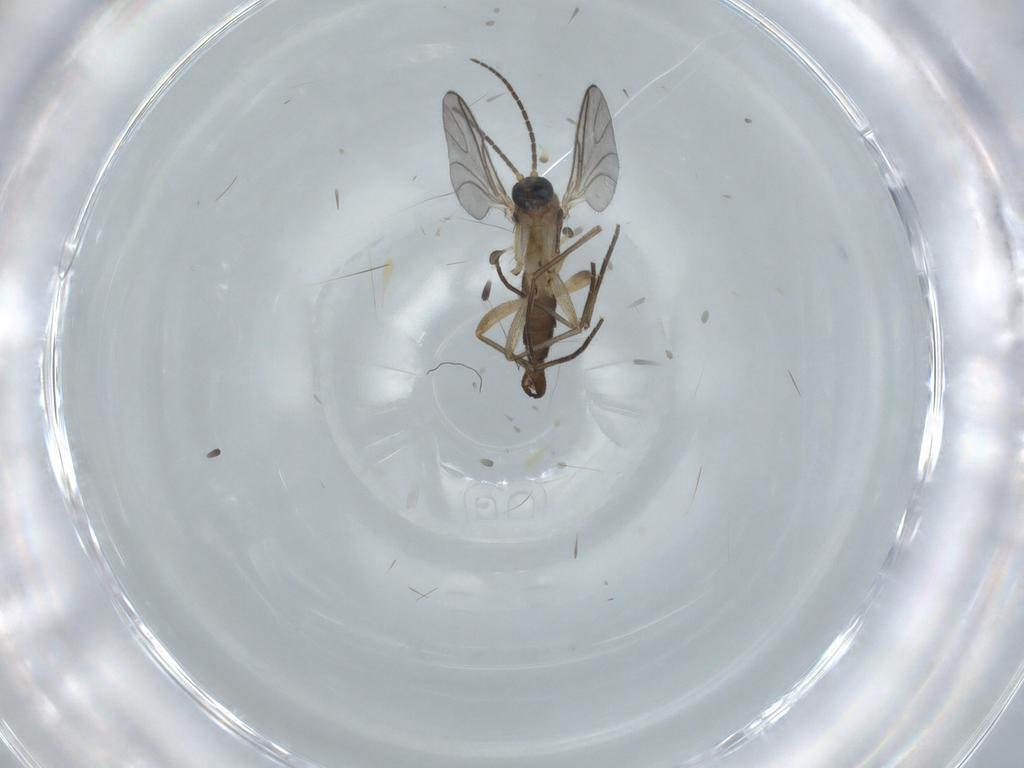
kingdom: Animalia
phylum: Arthropoda
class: Insecta
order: Diptera
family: Sciaridae
